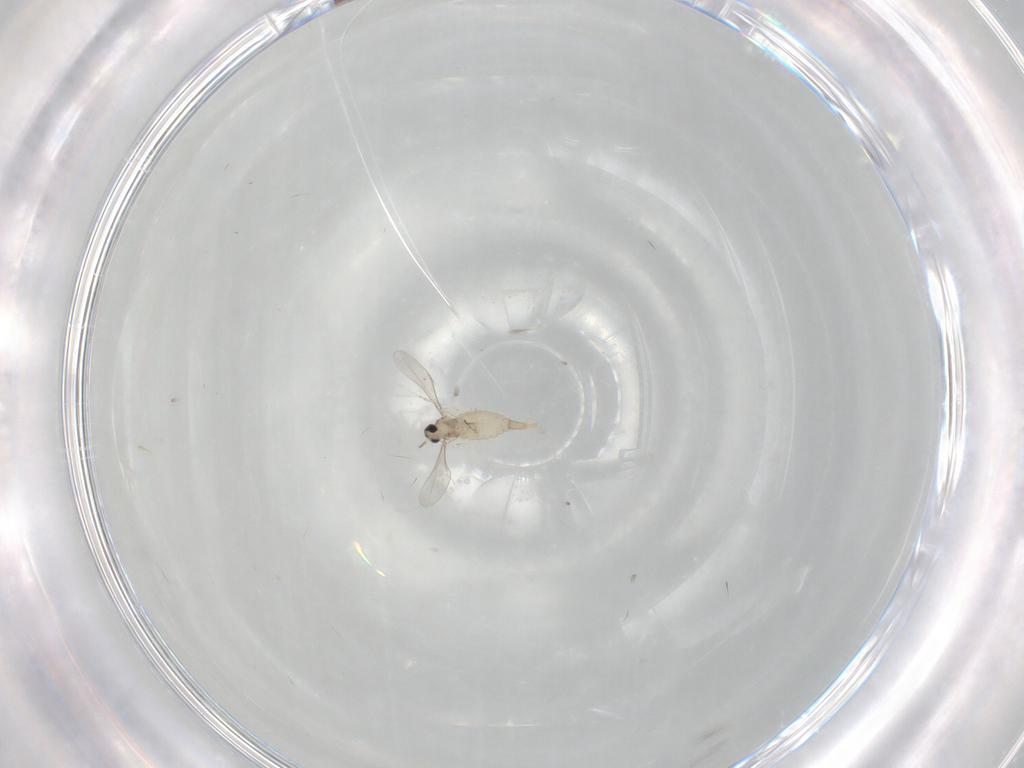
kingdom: Animalia
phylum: Arthropoda
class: Insecta
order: Diptera
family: Cecidomyiidae
